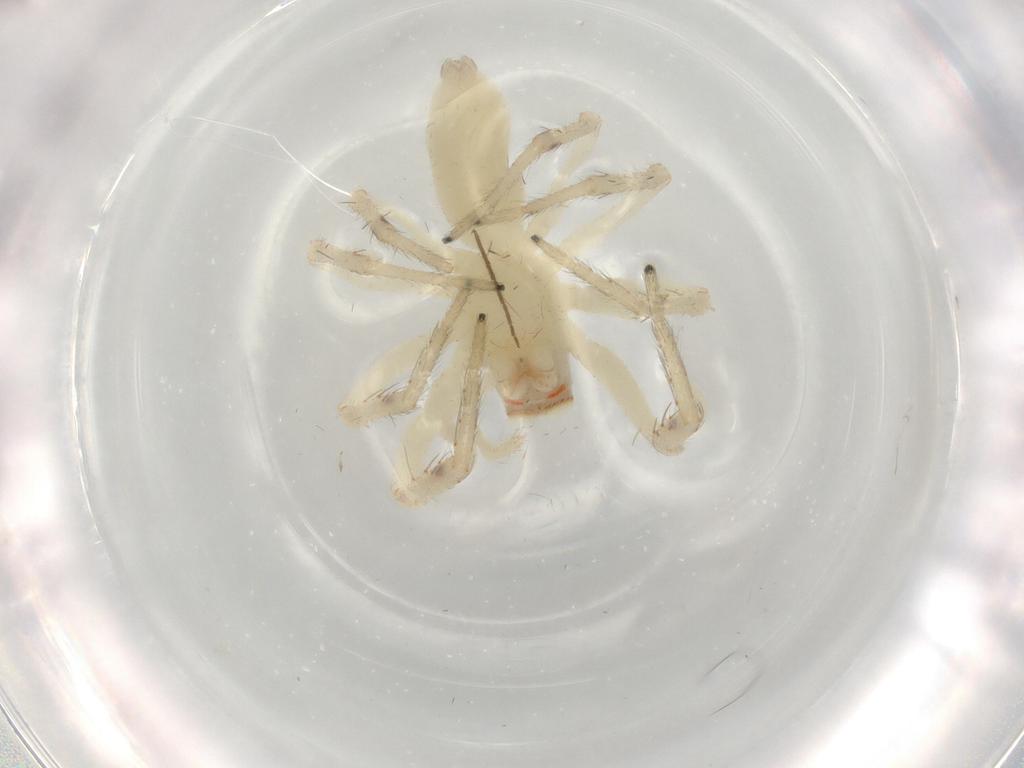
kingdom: Animalia
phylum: Arthropoda
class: Arachnida
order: Araneae
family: Salticidae
